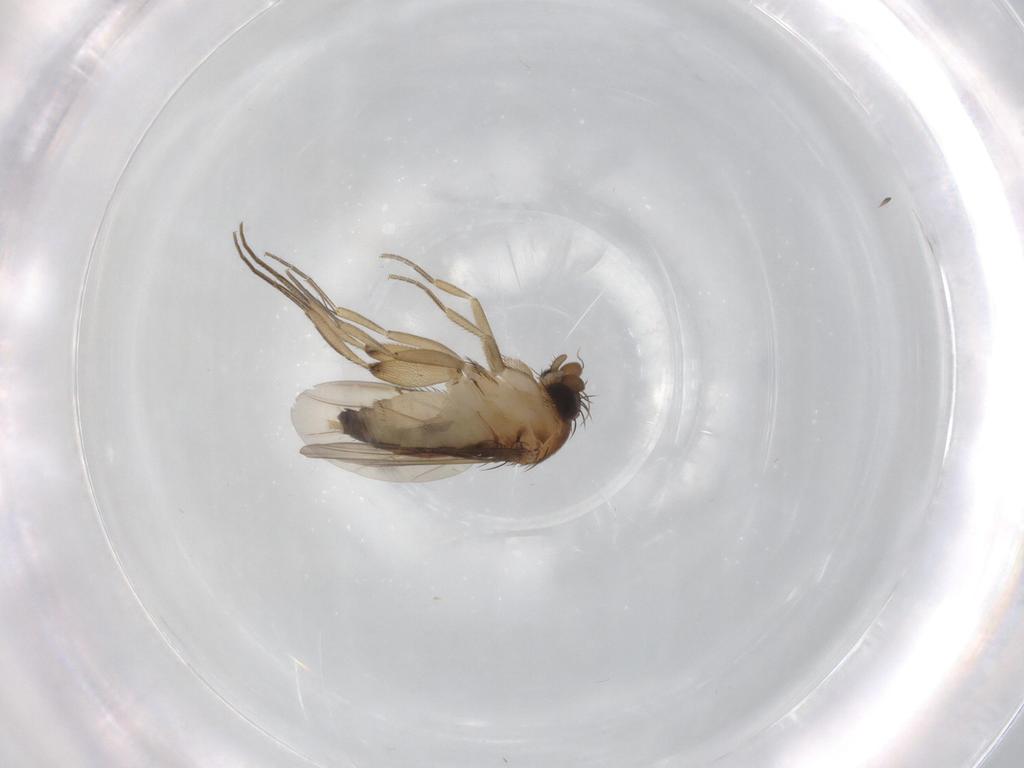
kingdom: Animalia
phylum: Arthropoda
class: Insecta
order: Diptera
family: Phoridae
